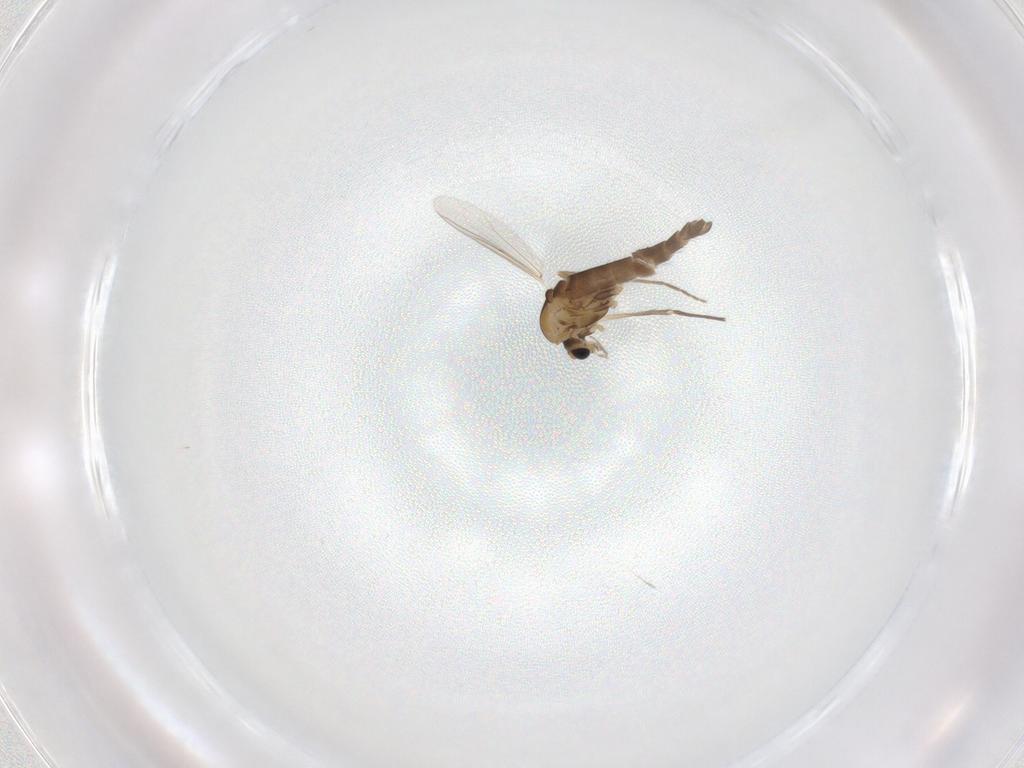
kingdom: Animalia
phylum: Arthropoda
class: Insecta
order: Diptera
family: Chironomidae
